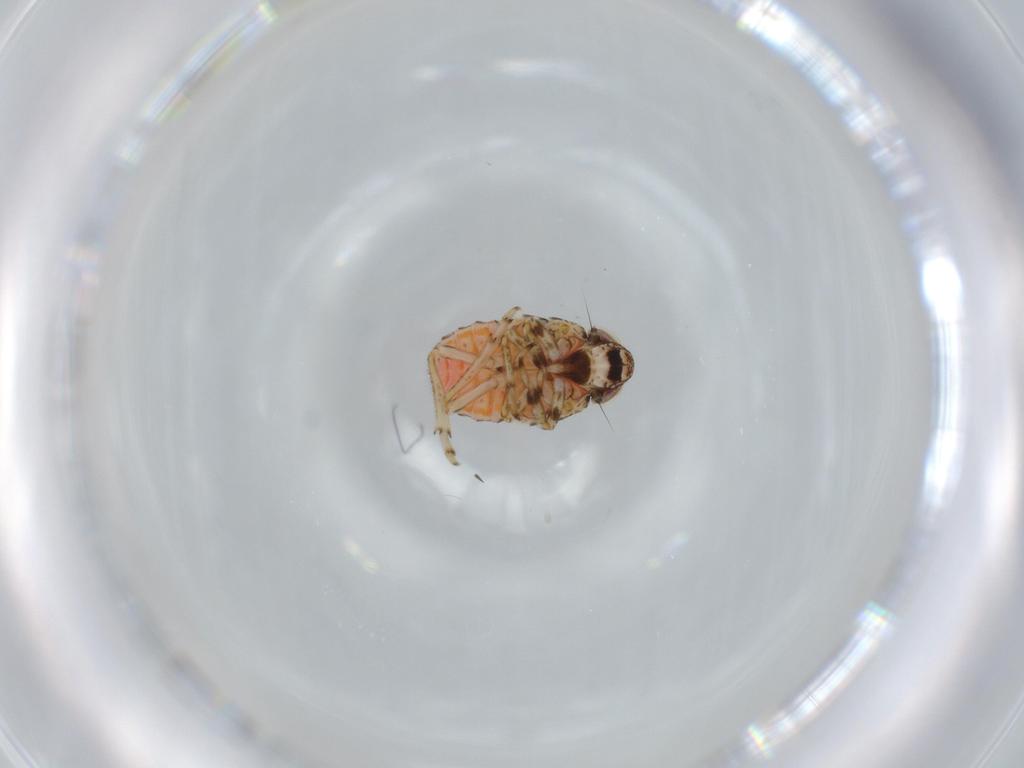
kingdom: Animalia
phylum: Arthropoda
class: Insecta
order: Hemiptera
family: Issidae
